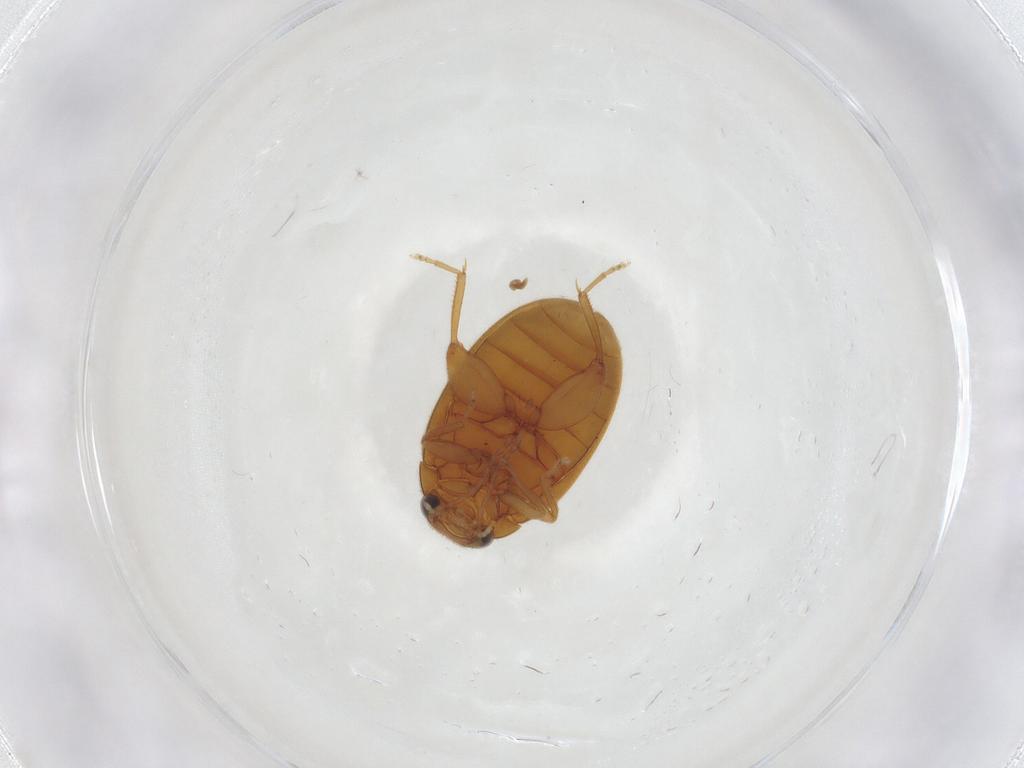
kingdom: Animalia
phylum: Arthropoda
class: Insecta
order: Coleoptera
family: Scirtidae
